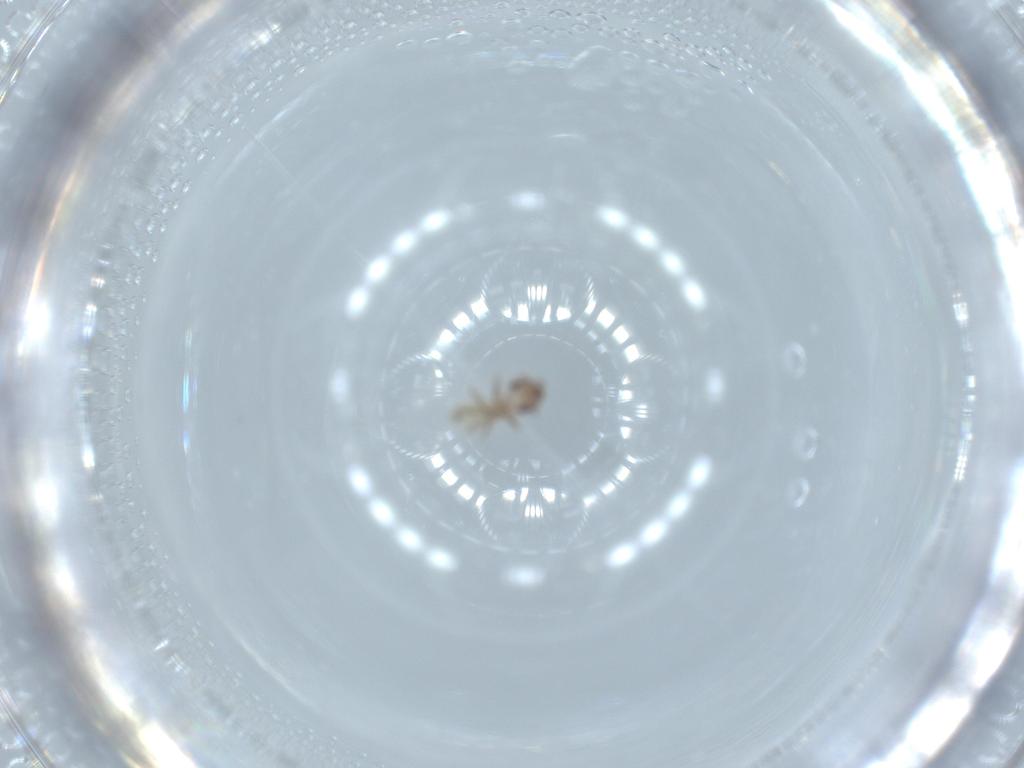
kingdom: Animalia
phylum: Arthropoda
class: Insecta
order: Psocodea
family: Lepidopsocidae
